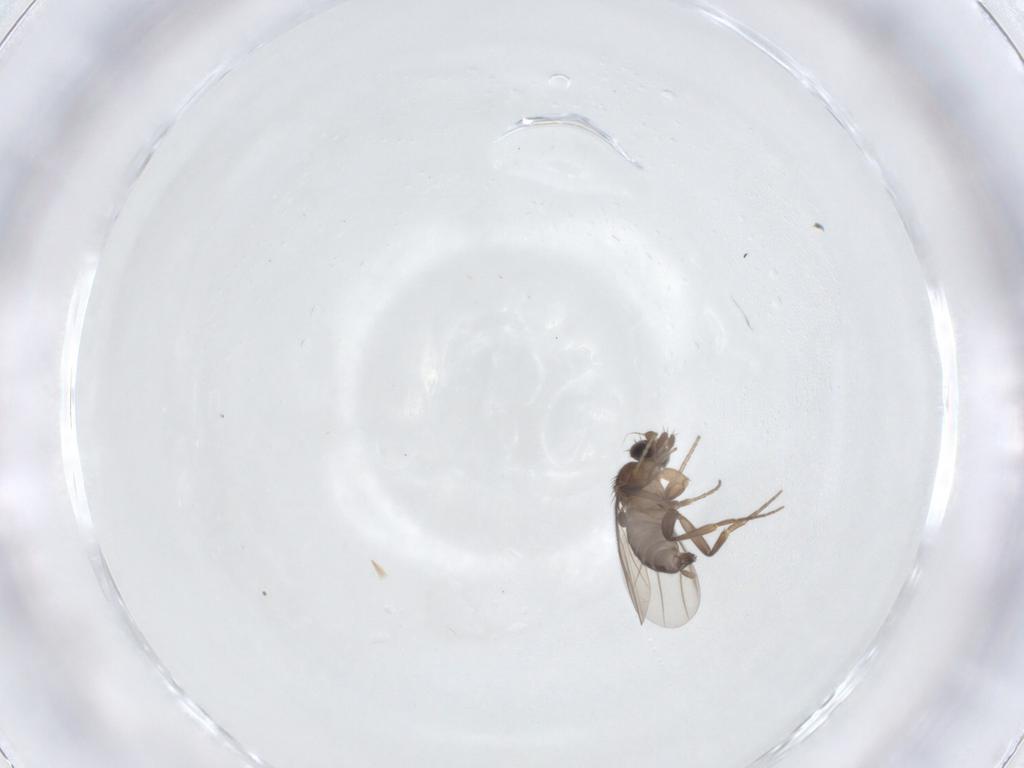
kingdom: Animalia
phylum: Arthropoda
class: Insecta
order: Diptera
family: Phoridae
